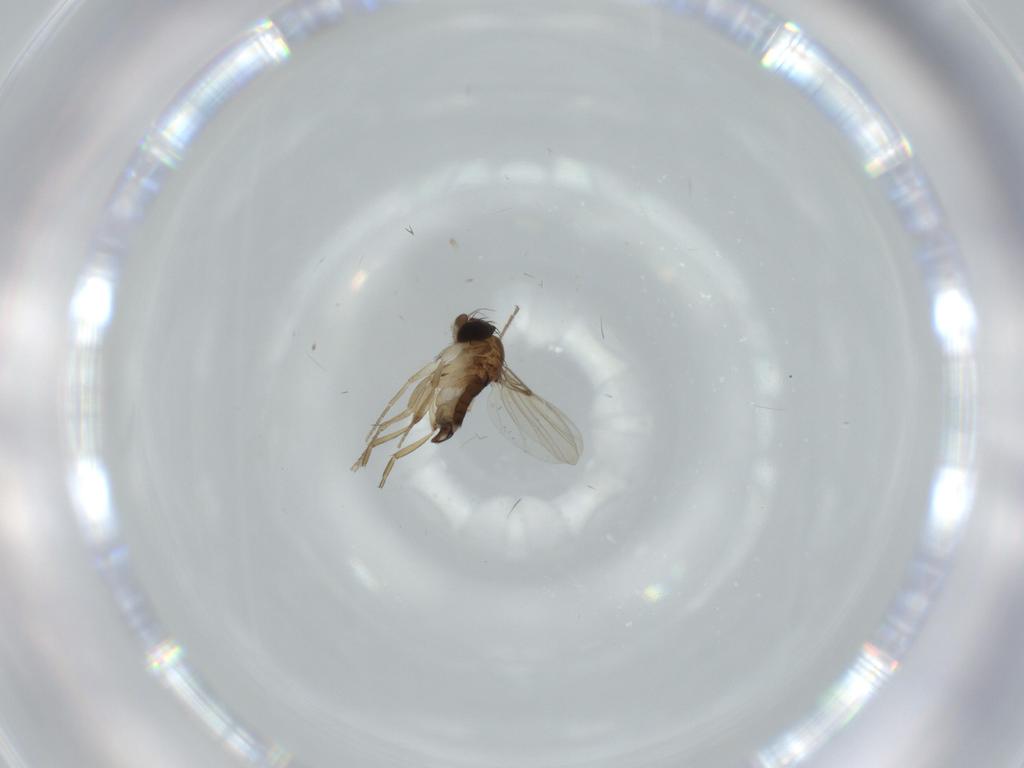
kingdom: Animalia
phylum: Arthropoda
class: Insecta
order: Diptera
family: Phoridae
